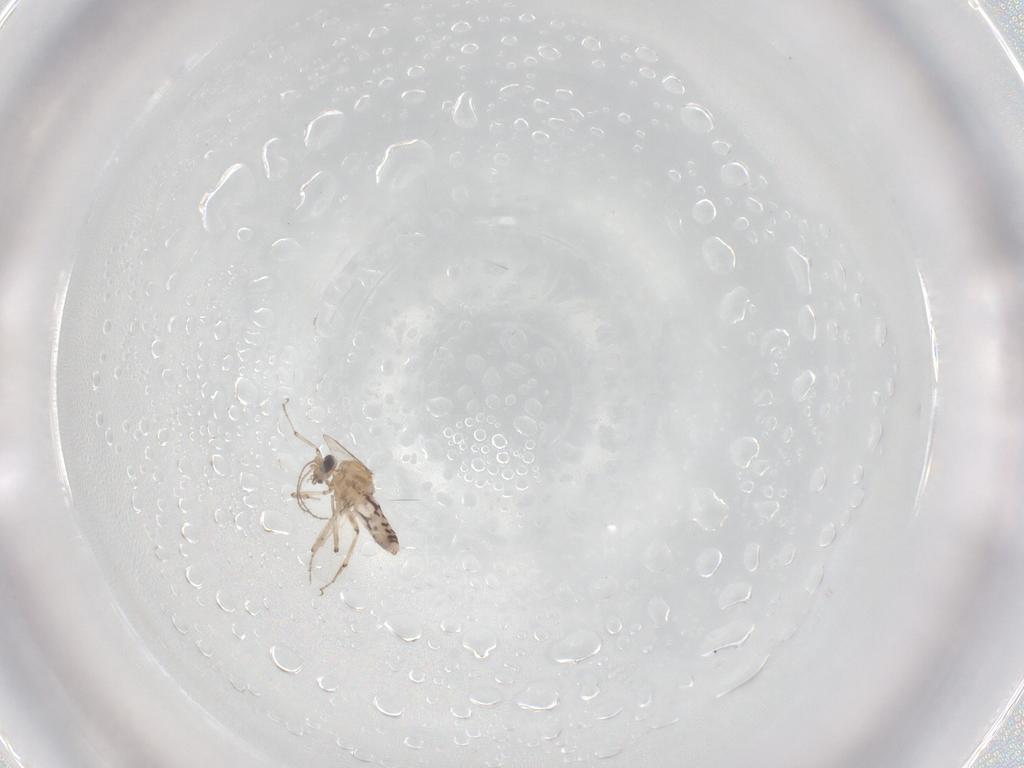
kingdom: Animalia
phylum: Arthropoda
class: Insecta
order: Diptera
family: Ceratopogonidae
